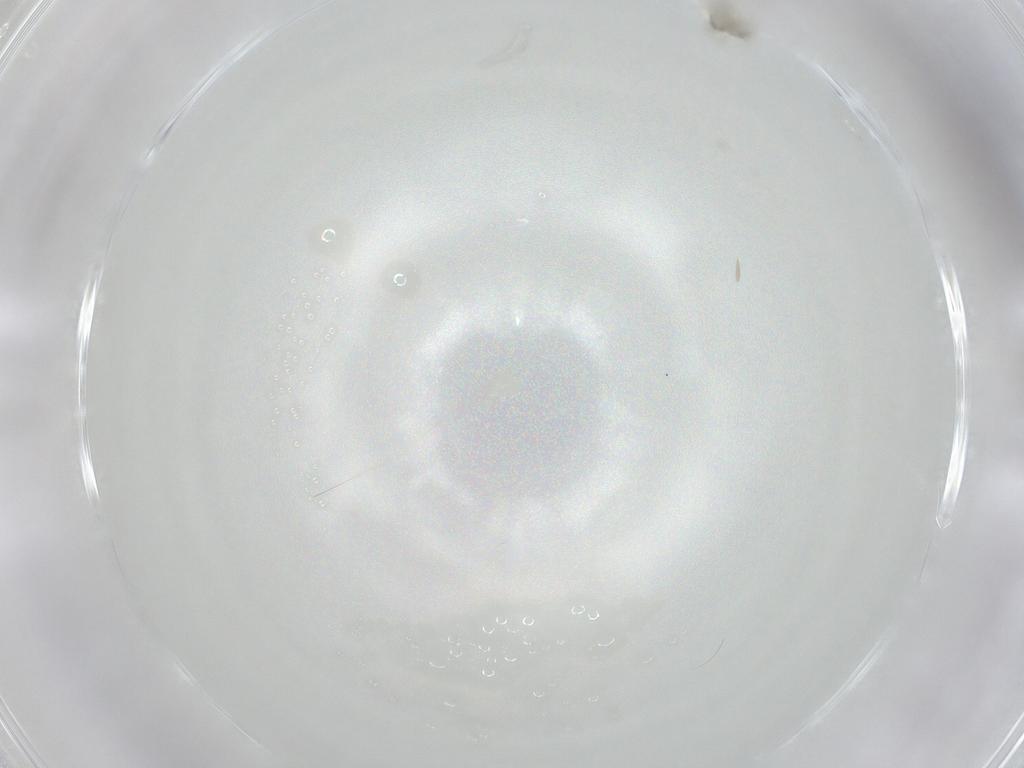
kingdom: Animalia
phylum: Arthropoda
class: Insecta
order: Diptera
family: Cecidomyiidae
